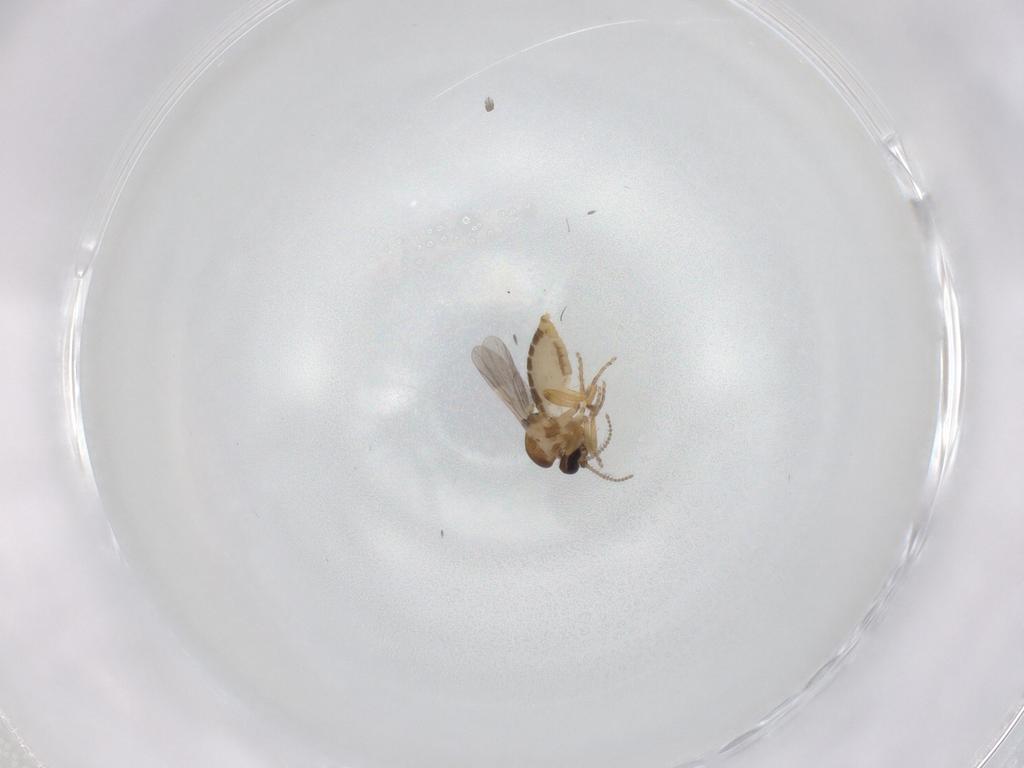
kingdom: Animalia
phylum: Arthropoda
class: Insecta
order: Diptera
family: Ceratopogonidae
